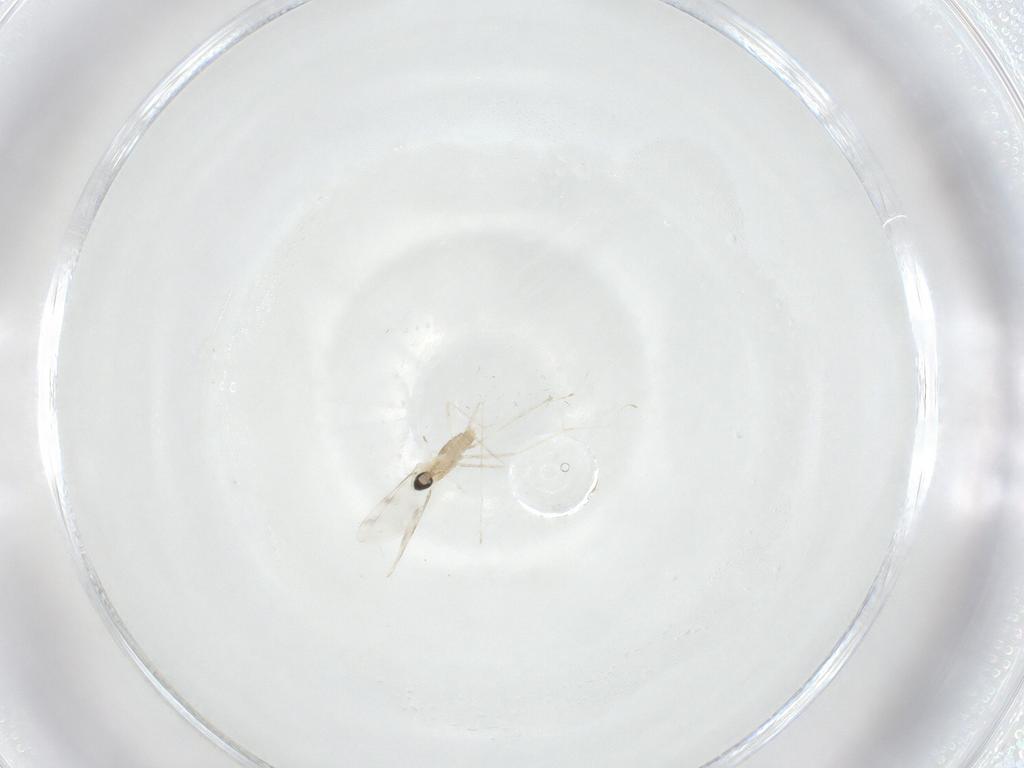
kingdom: Animalia
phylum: Arthropoda
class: Insecta
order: Diptera
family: Cecidomyiidae
